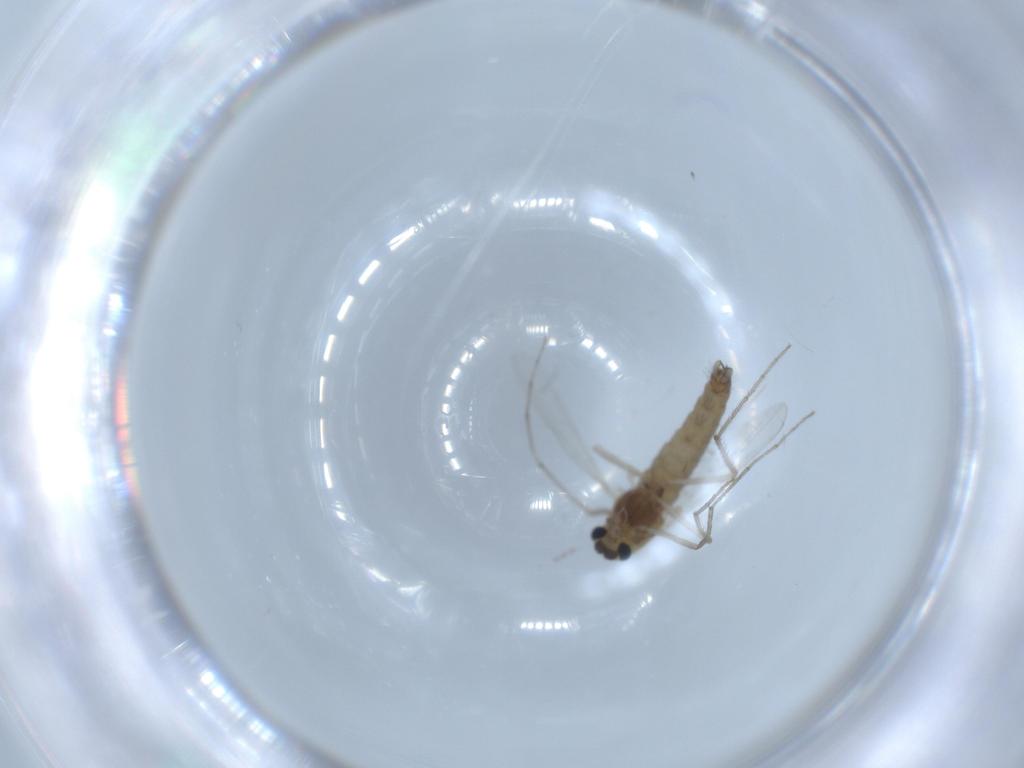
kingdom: Animalia
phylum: Arthropoda
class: Insecta
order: Diptera
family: Chironomidae
